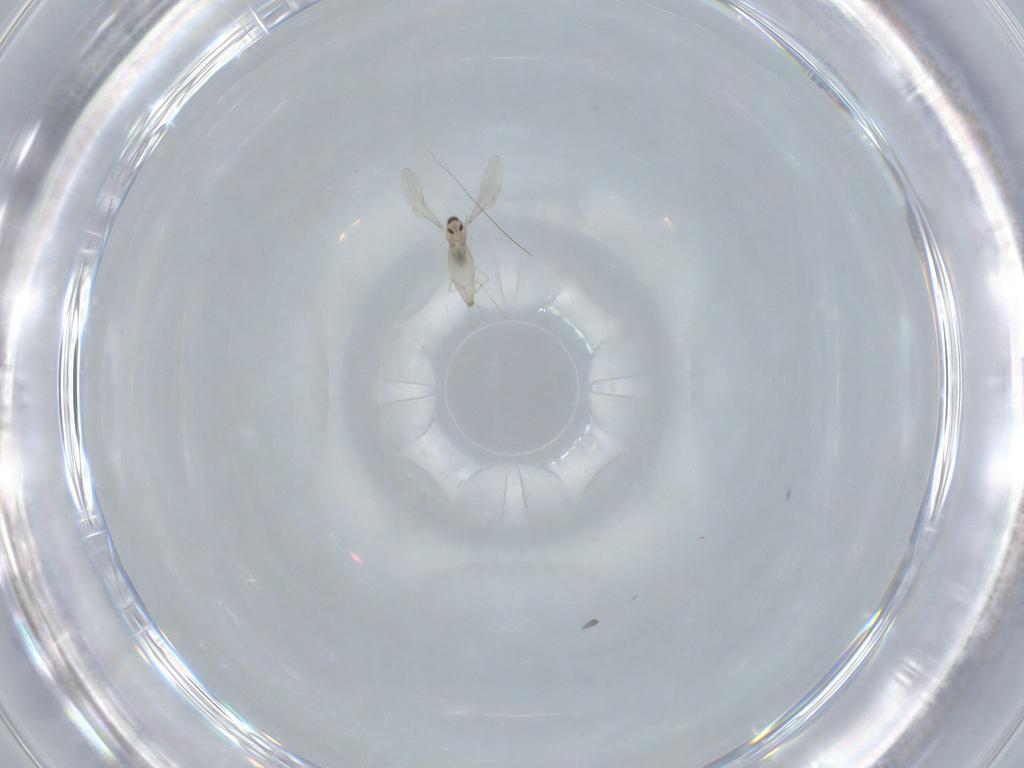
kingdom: Animalia
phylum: Arthropoda
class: Insecta
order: Diptera
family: Cecidomyiidae
